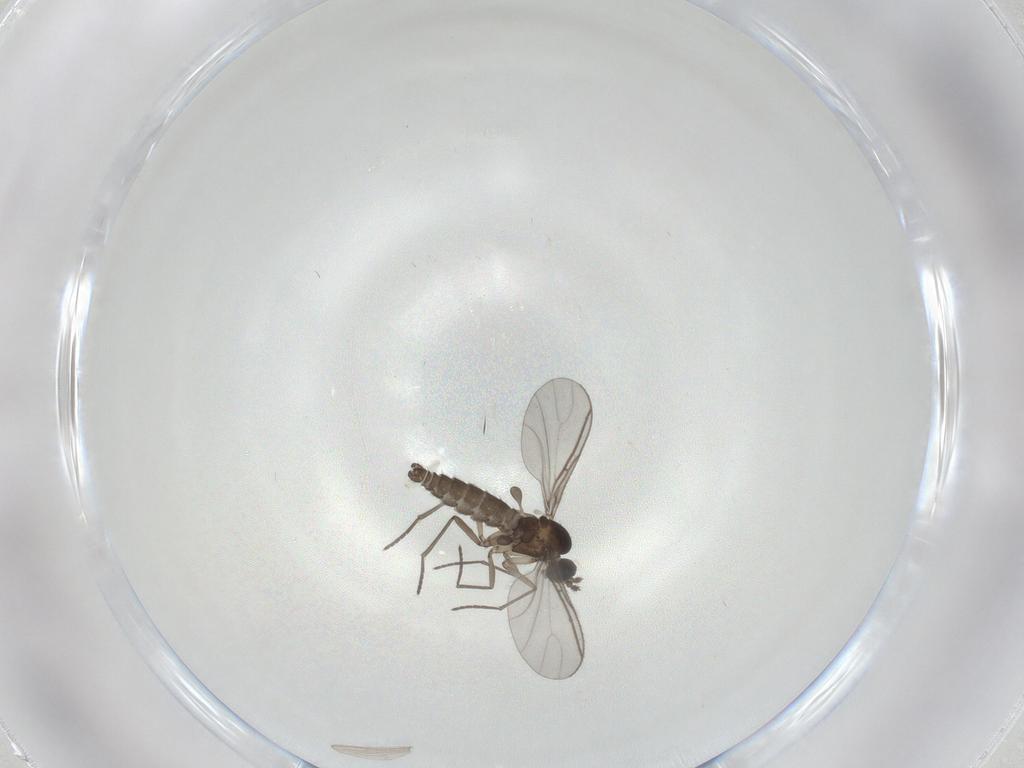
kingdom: Animalia
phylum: Arthropoda
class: Insecta
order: Diptera
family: Sciaridae
